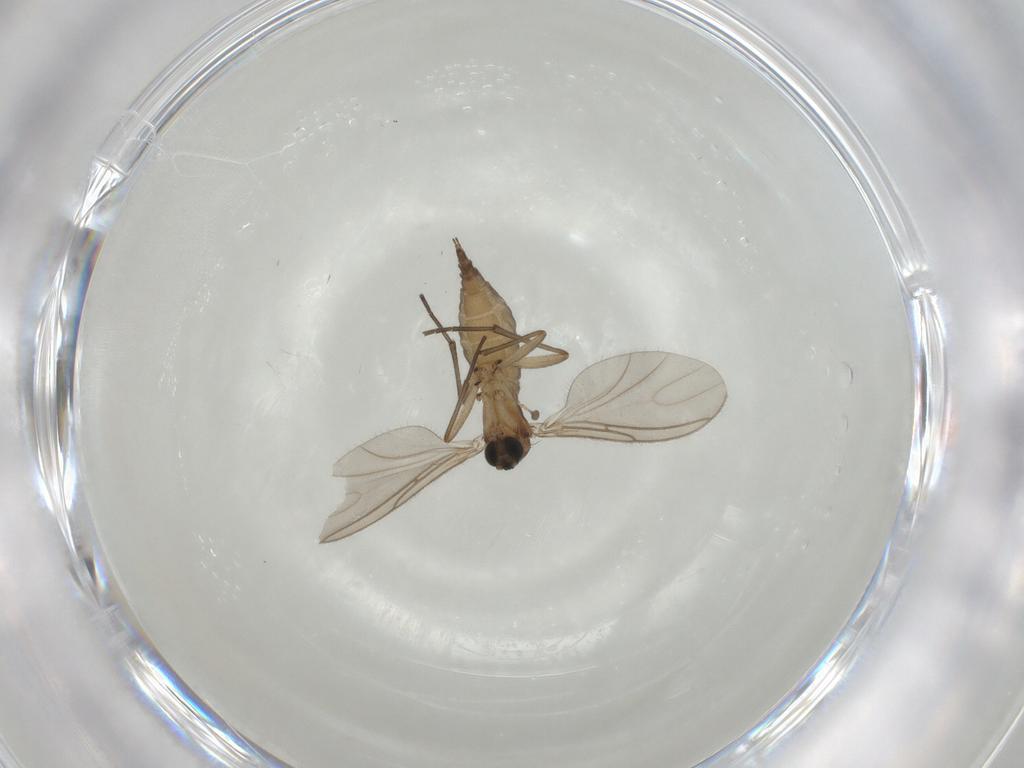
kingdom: Animalia
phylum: Arthropoda
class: Insecta
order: Diptera
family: Sciaridae
